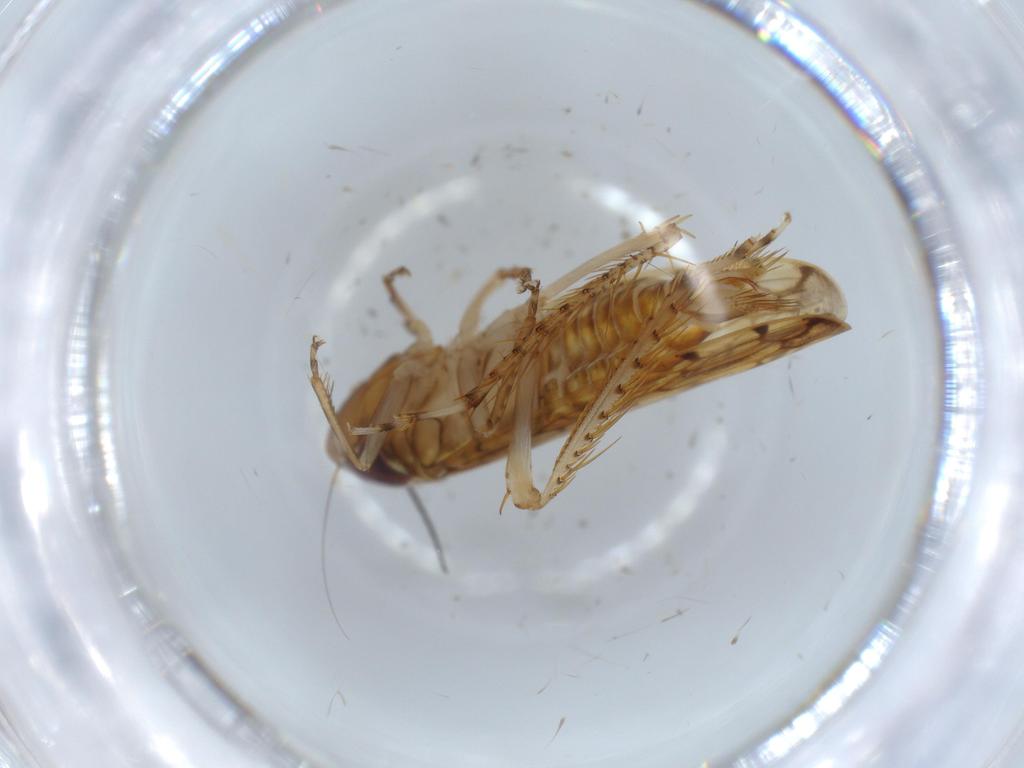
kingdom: Animalia
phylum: Arthropoda
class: Insecta
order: Hemiptera
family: Cicadellidae
